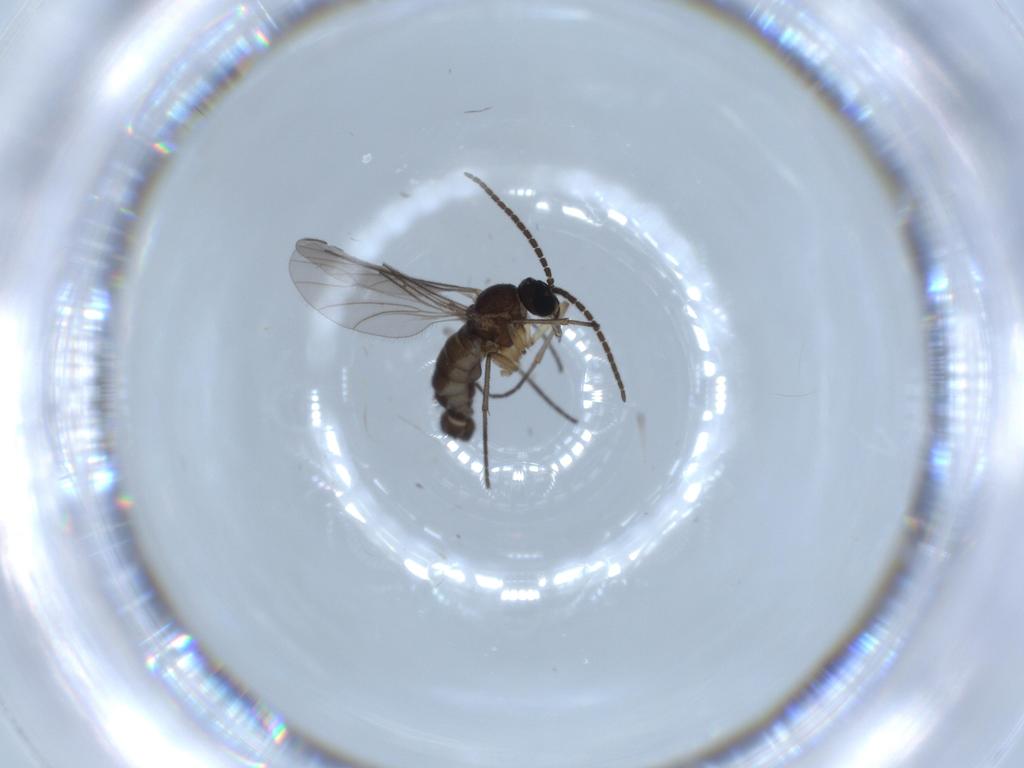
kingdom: Animalia
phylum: Arthropoda
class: Insecta
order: Diptera
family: Sciaridae
